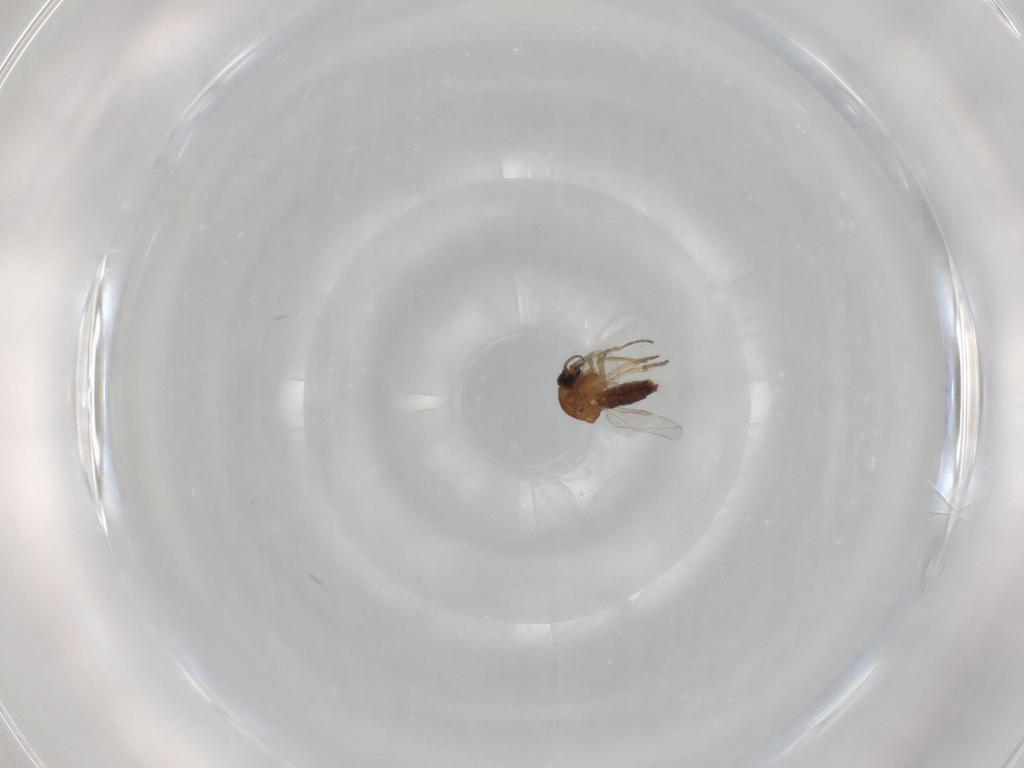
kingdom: Animalia
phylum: Arthropoda
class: Insecta
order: Diptera
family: Ceratopogonidae
